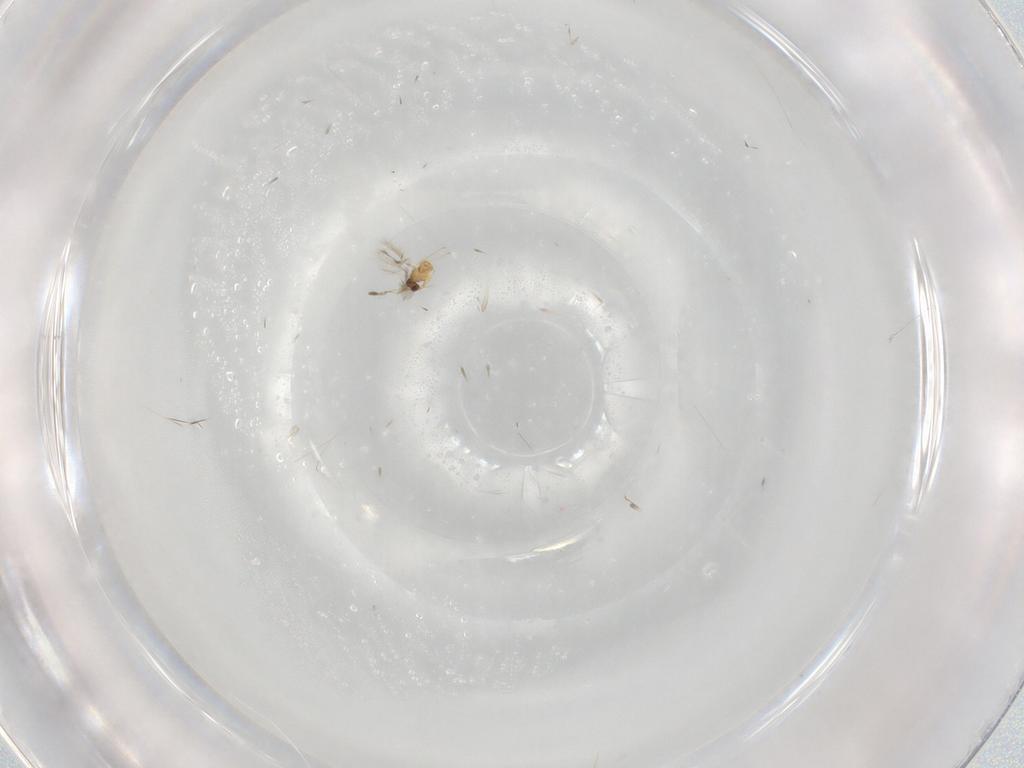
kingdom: Animalia
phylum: Arthropoda
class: Insecta
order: Hymenoptera
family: Mymaridae
